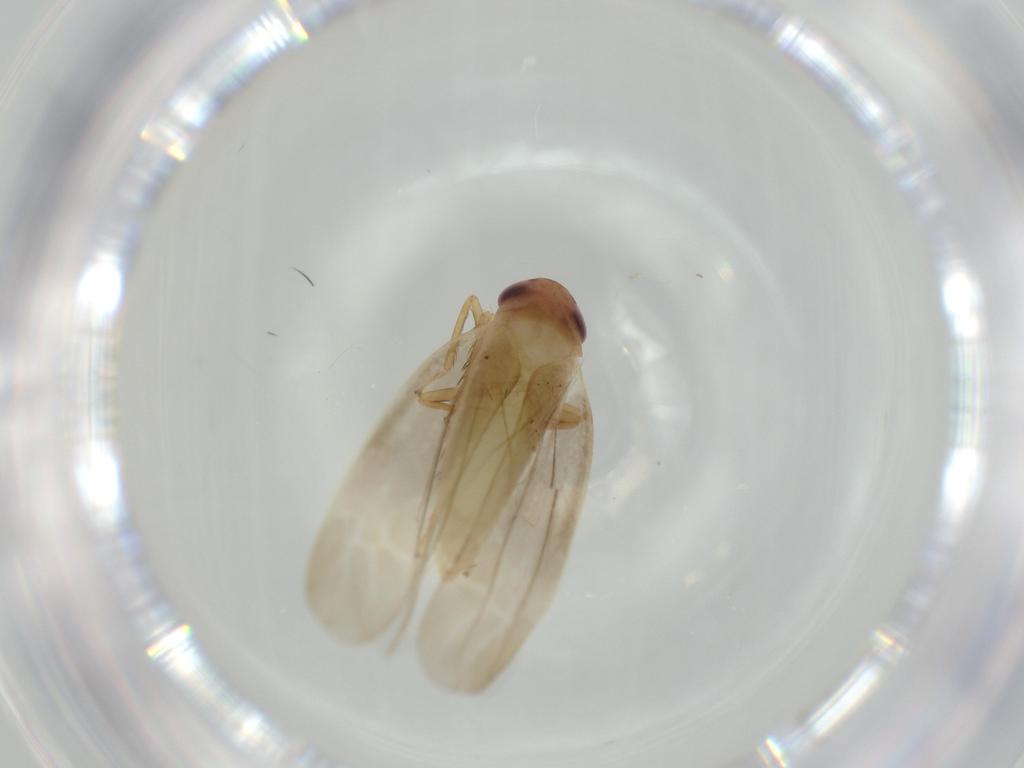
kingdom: Animalia
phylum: Arthropoda
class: Insecta
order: Hemiptera
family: Cicadellidae
